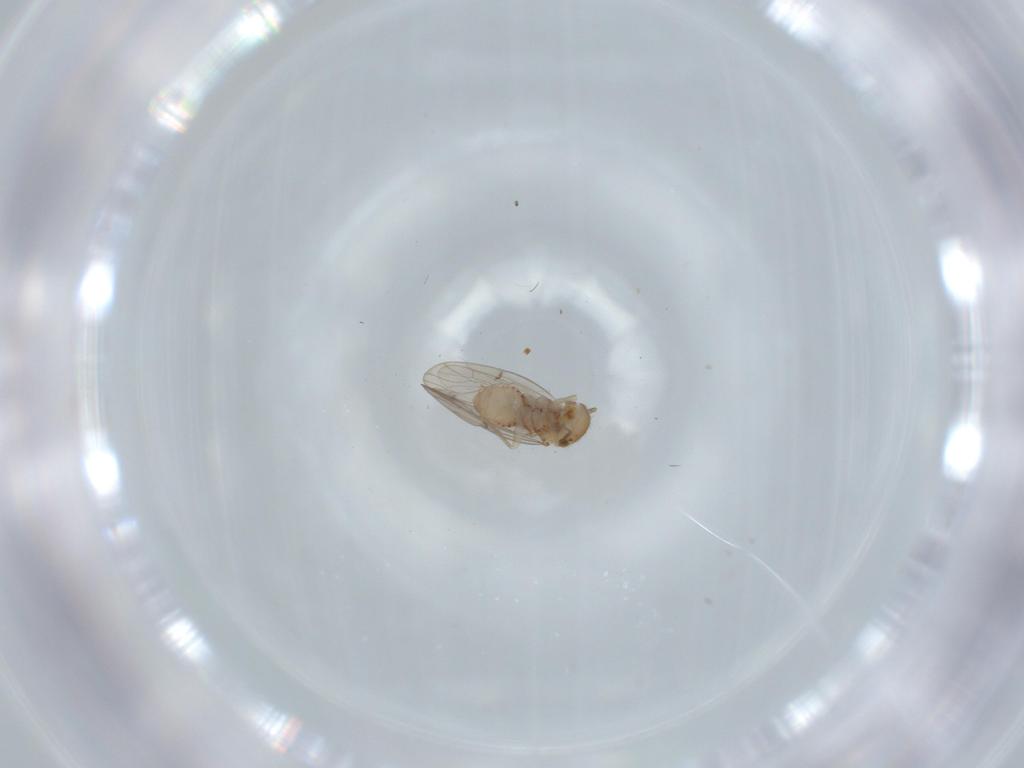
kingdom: Animalia
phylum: Arthropoda
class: Insecta
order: Psocodea
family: Ectopsocidae
